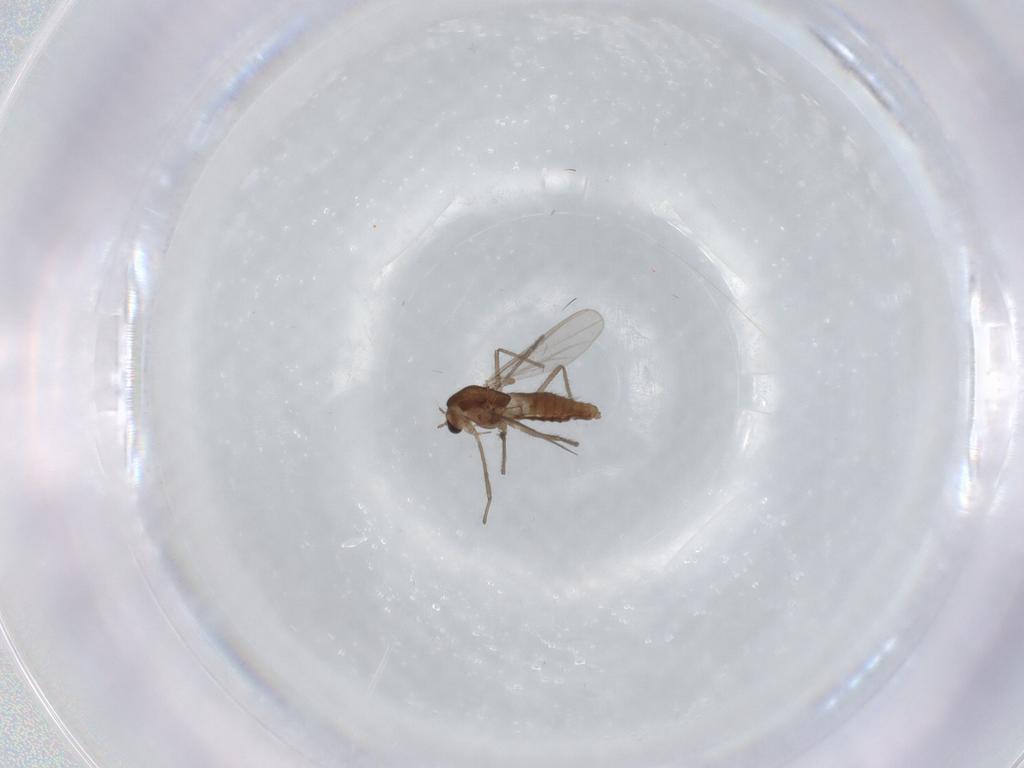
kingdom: Animalia
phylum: Arthropoda
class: Insecta
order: Diptera
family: Chironomidae
